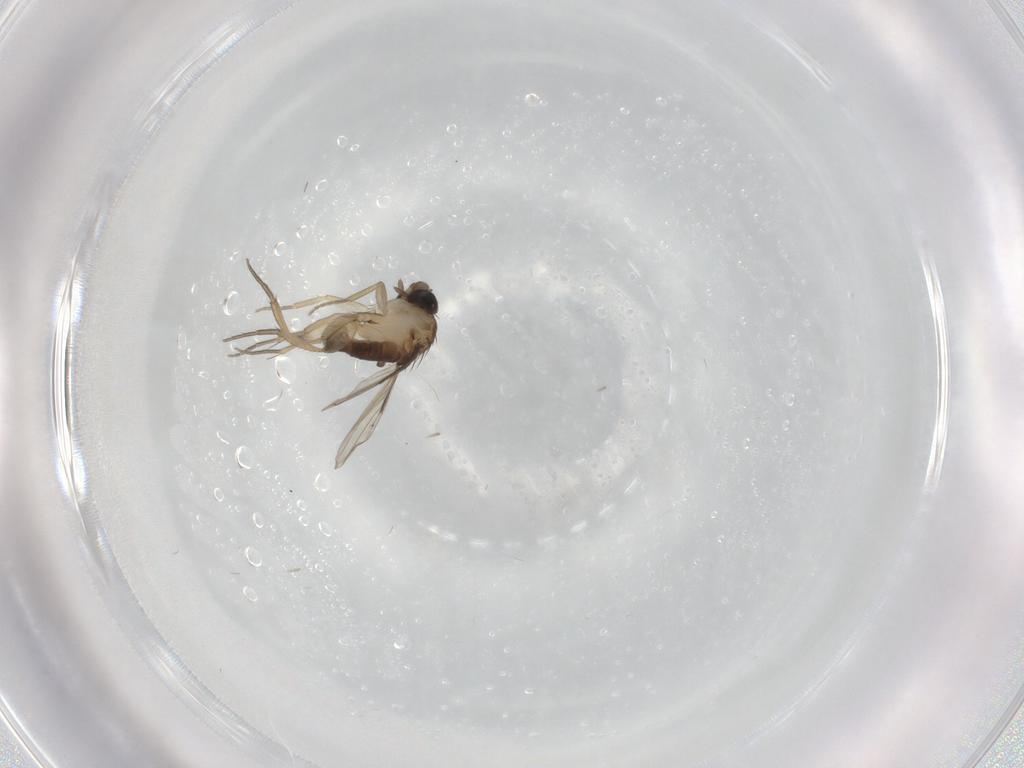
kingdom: Animalia
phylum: Arthropoda
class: Insecta
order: Diptera
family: Phoridae
